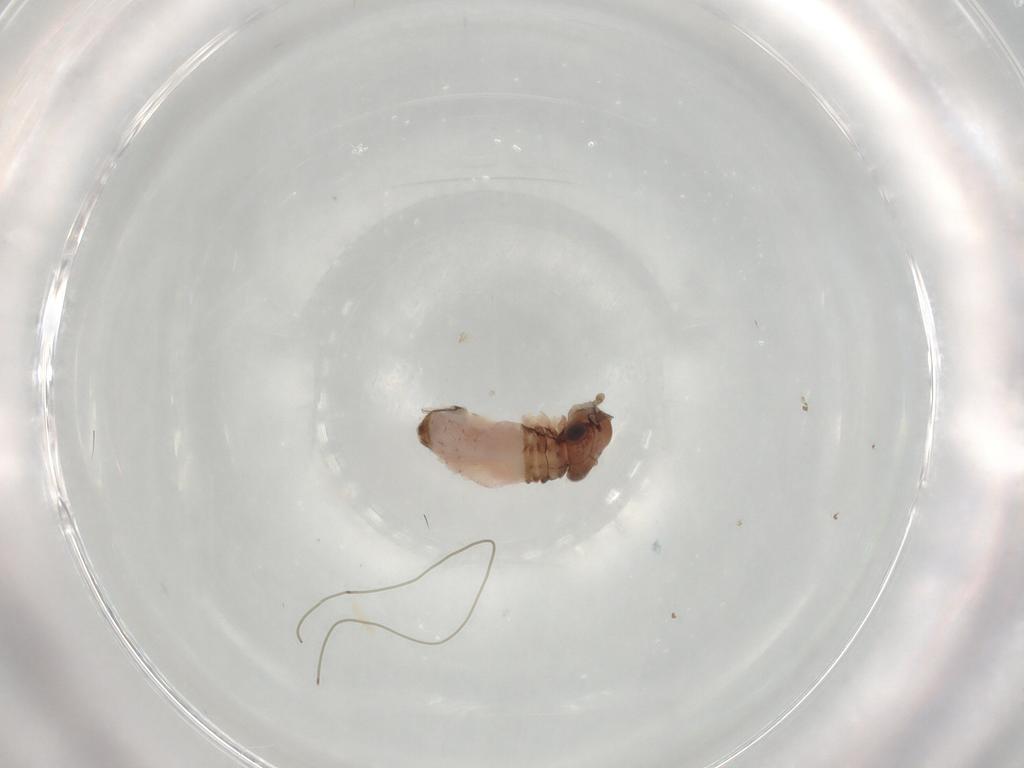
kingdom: Animalia
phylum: Arthropoda
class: Insecta
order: Psocodea
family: Trogiidae
